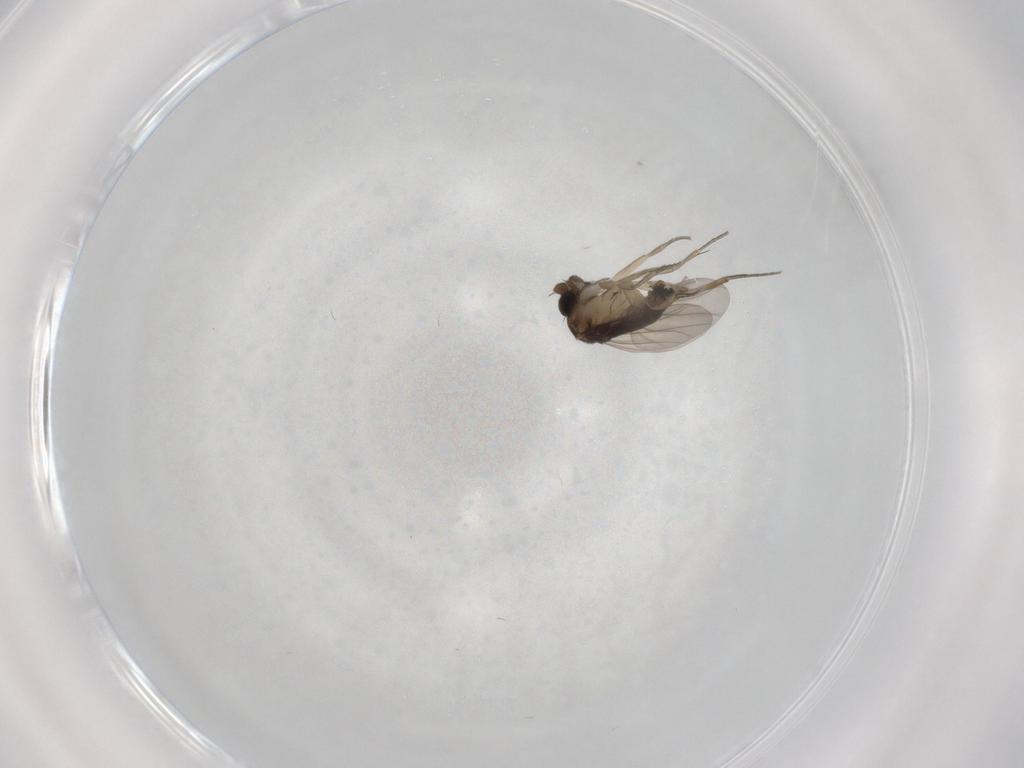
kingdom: Animalia
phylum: Arthropoda
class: Insecta
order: Diptera
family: Phoridae
